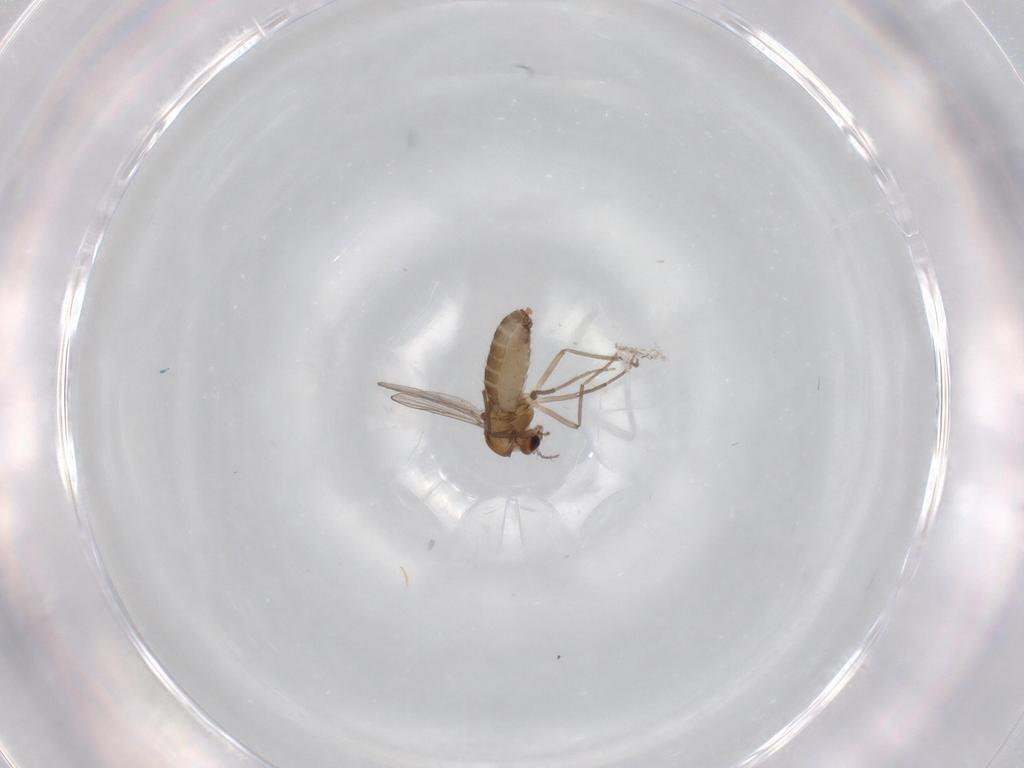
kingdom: Animalia
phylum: Arthropoda
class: Insecta
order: Diptera
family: Chironomidae
